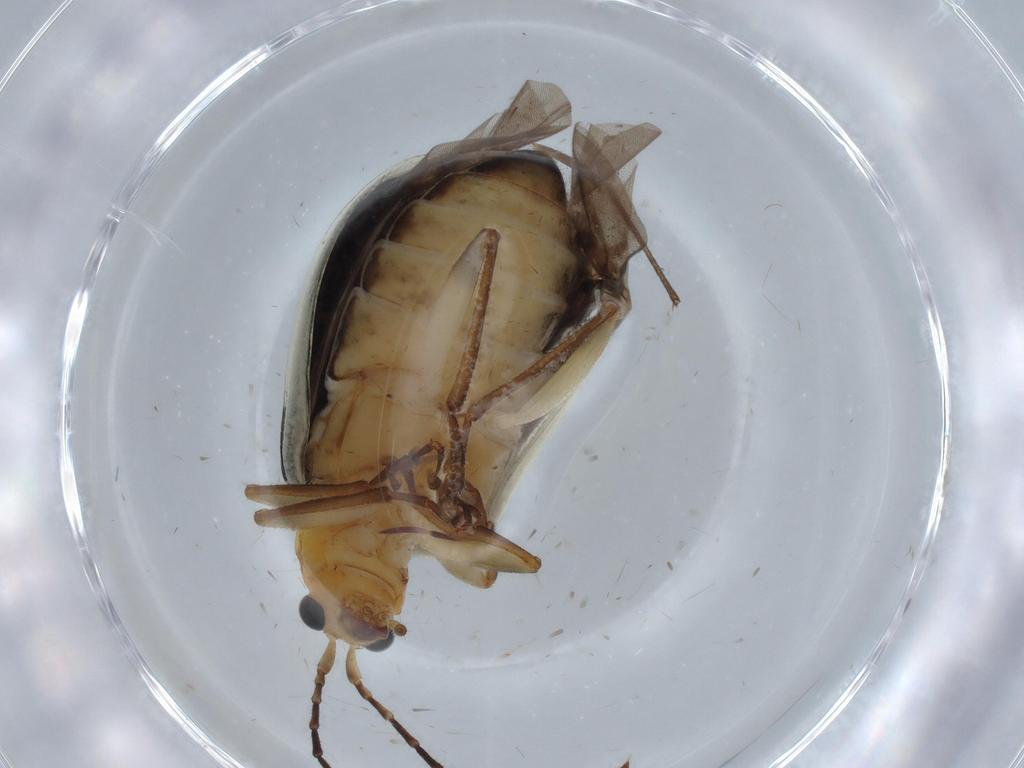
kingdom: Animalia
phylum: Arthropoda
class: Insecta
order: Coleoptera
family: Chrysomelidae
